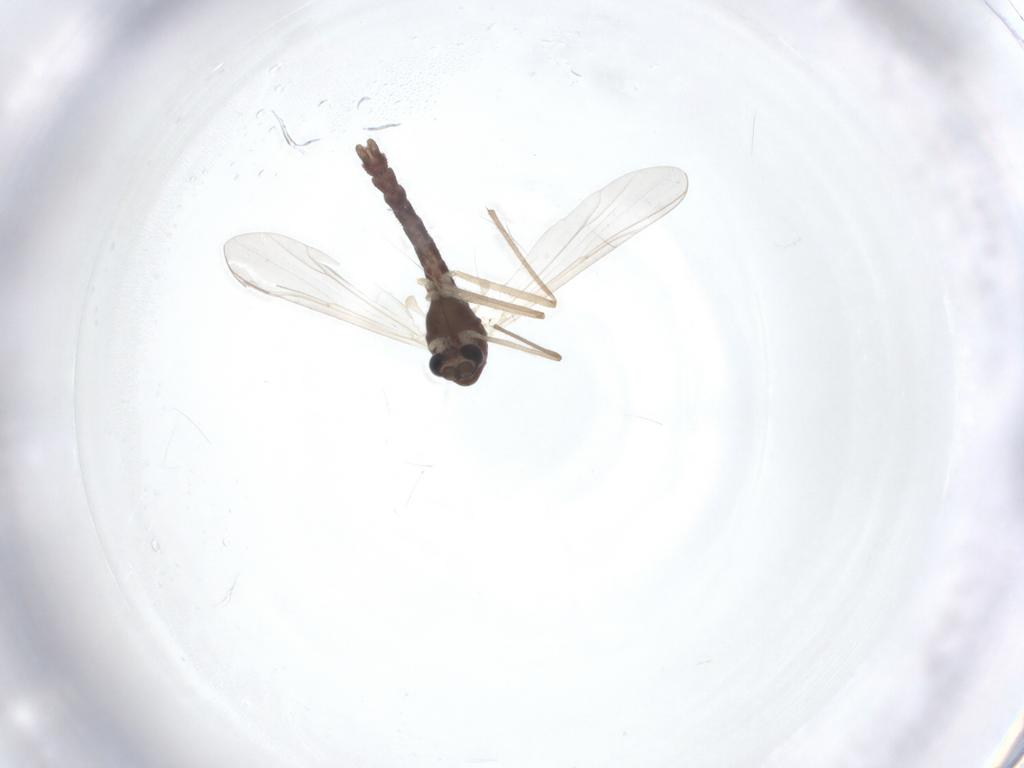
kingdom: Animalia
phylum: Arthropoda
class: Insecta
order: Diptera
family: Chironomidae
